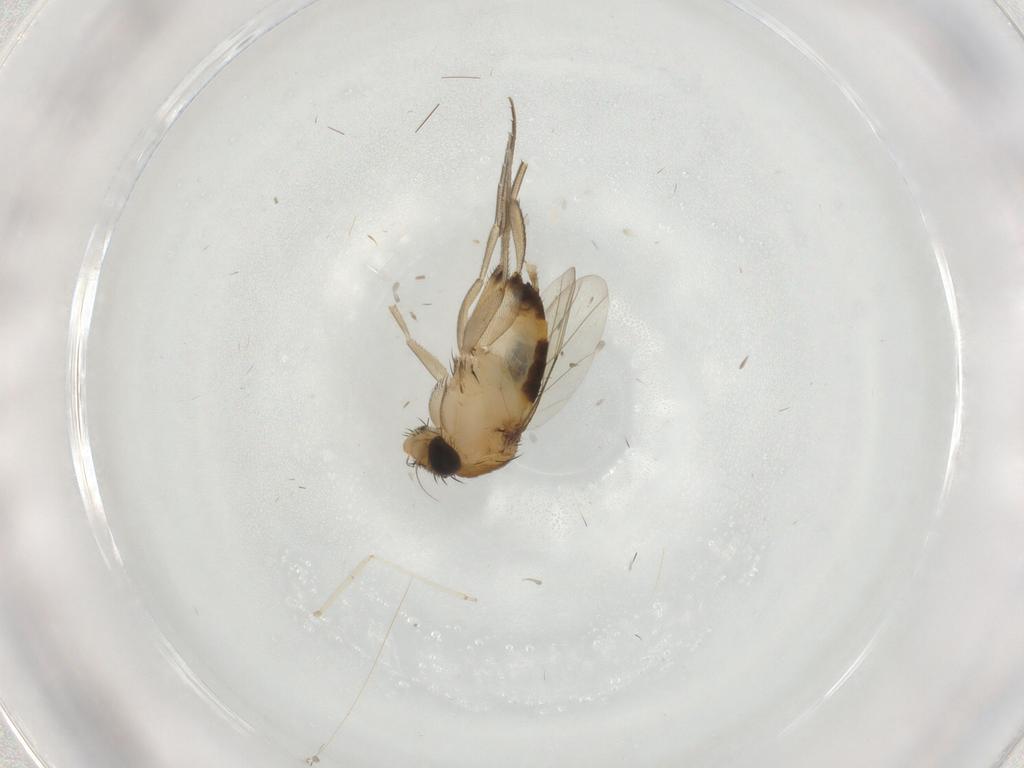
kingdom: Animalia
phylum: Arthropoda
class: Insecta
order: Diptera
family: Phoridae
